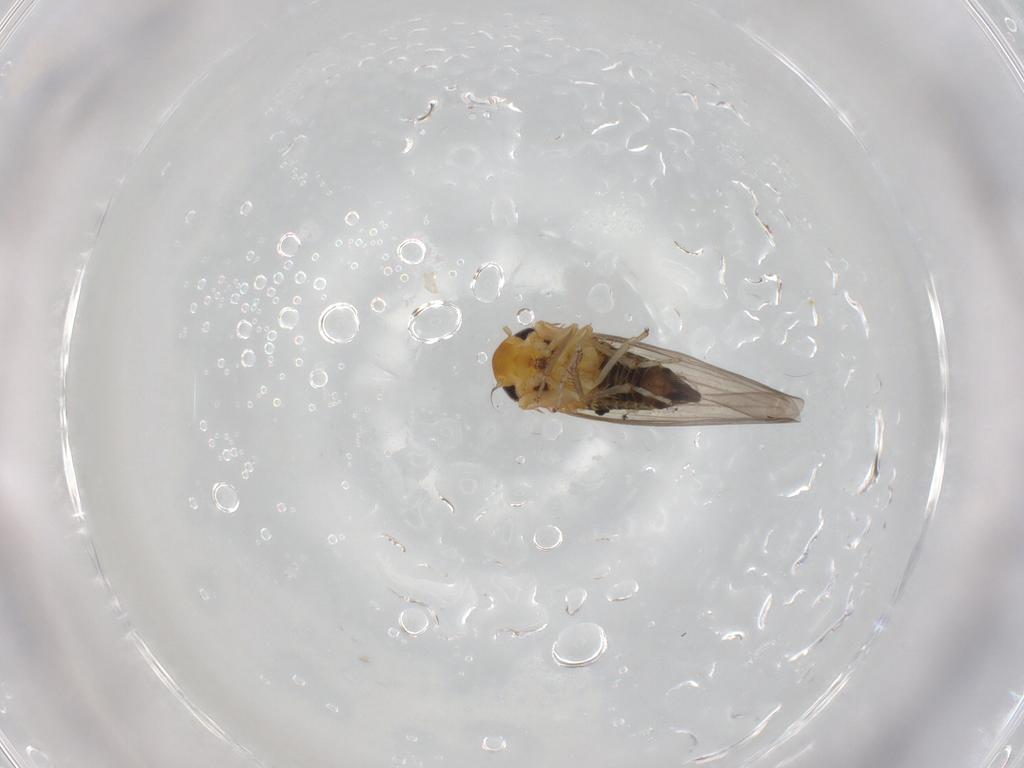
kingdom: Animalia
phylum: Arthropoda
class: Insecta
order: Hemiptera
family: Cicadellidae
